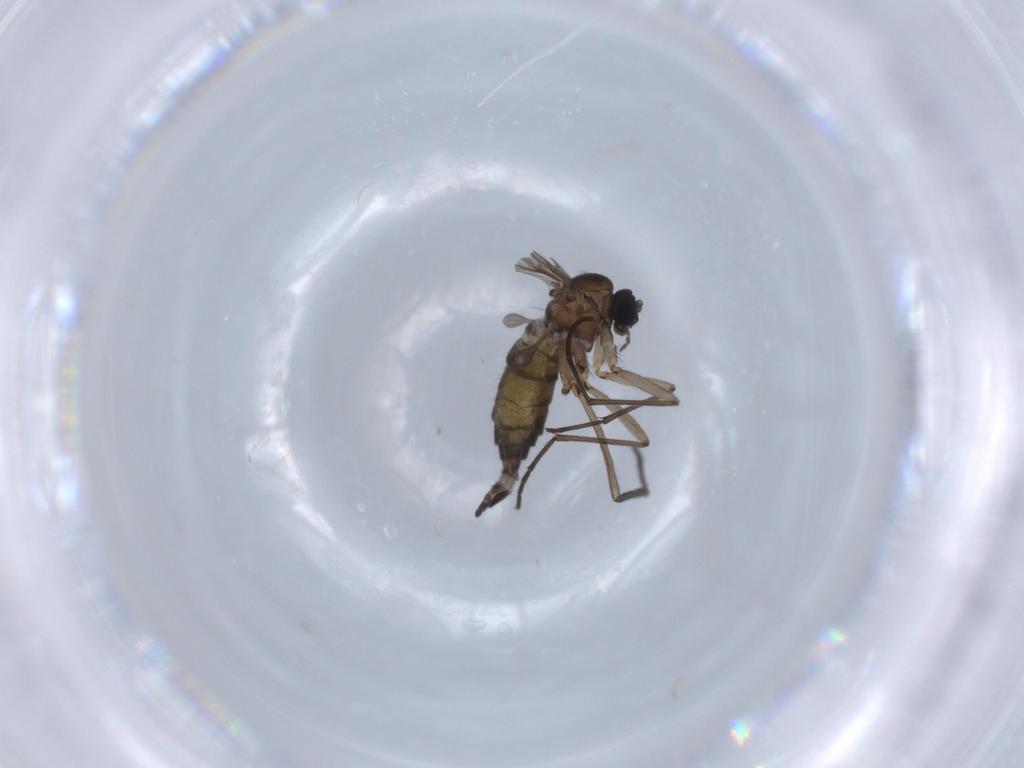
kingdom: Animalia
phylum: Arthropoda
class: Insecta
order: Diptera
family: Sciaridae
